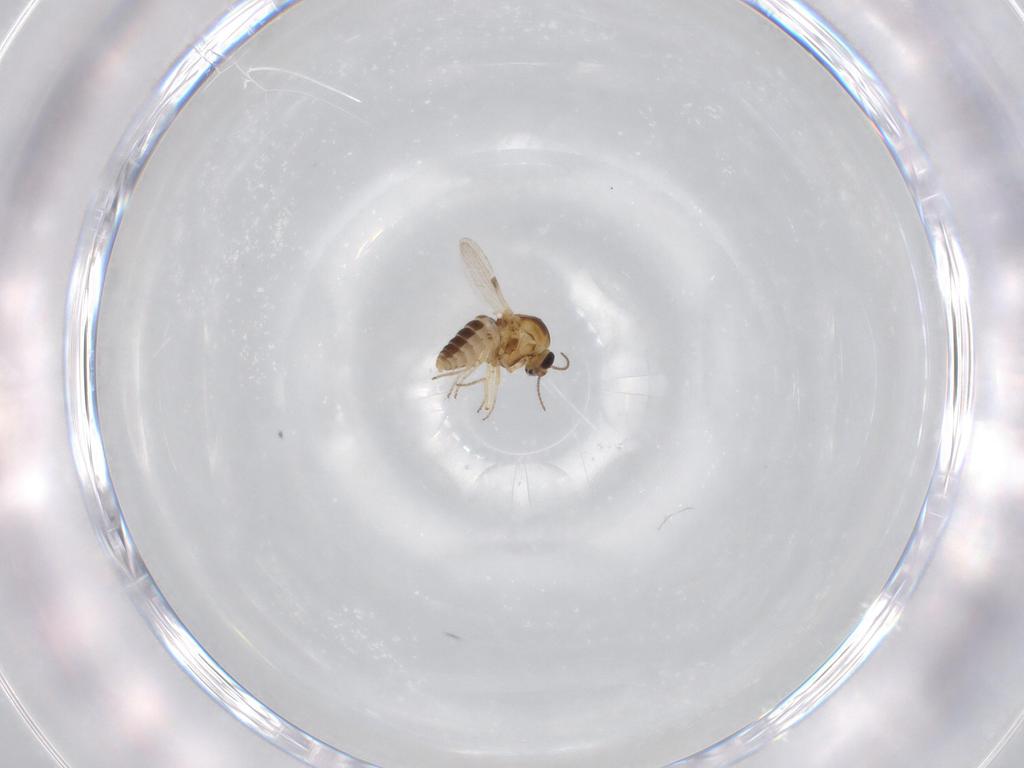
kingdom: Animalia
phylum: Arthropoda
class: Insecta
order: Diptera
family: Ceratopogonidae
